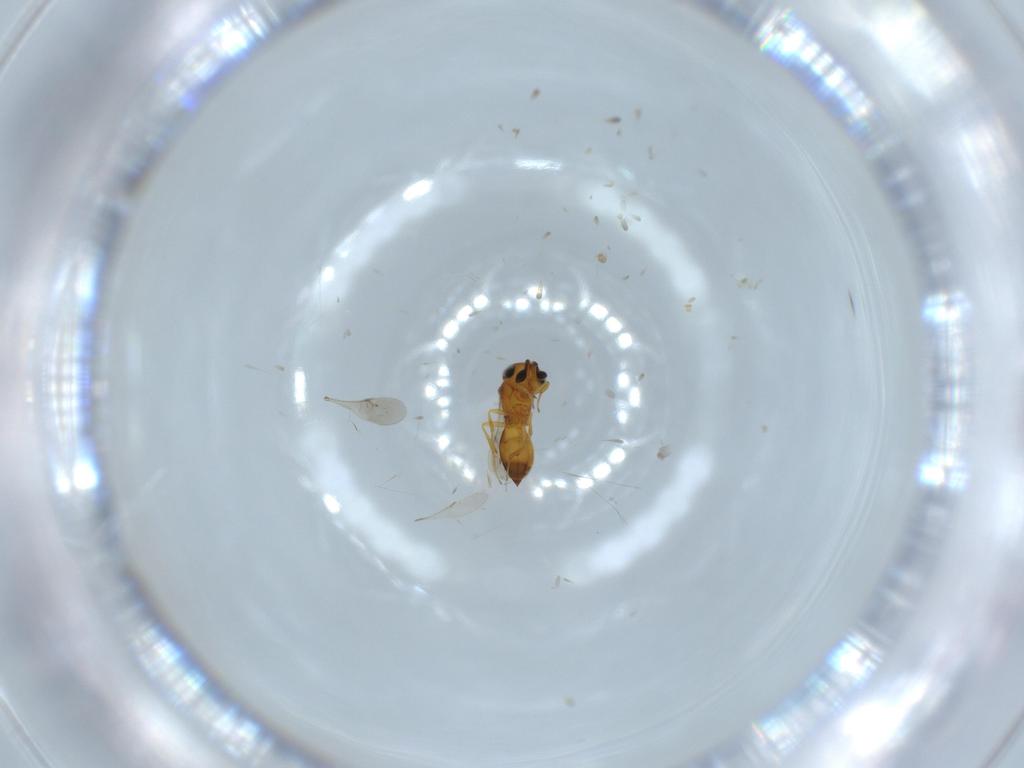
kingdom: Animalia
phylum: Arthropoda
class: Insecta
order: Hymenoptera
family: Scelionidae
